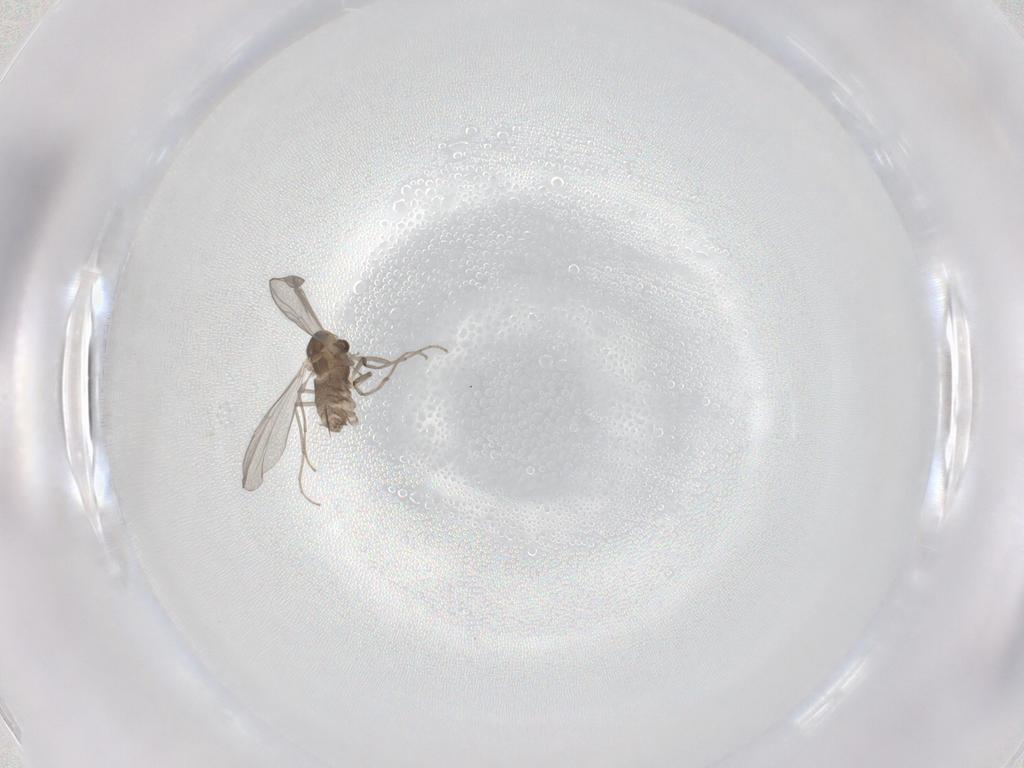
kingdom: Animalia
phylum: Arthropoda
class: Insecta
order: Diptera
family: Chironomidae
